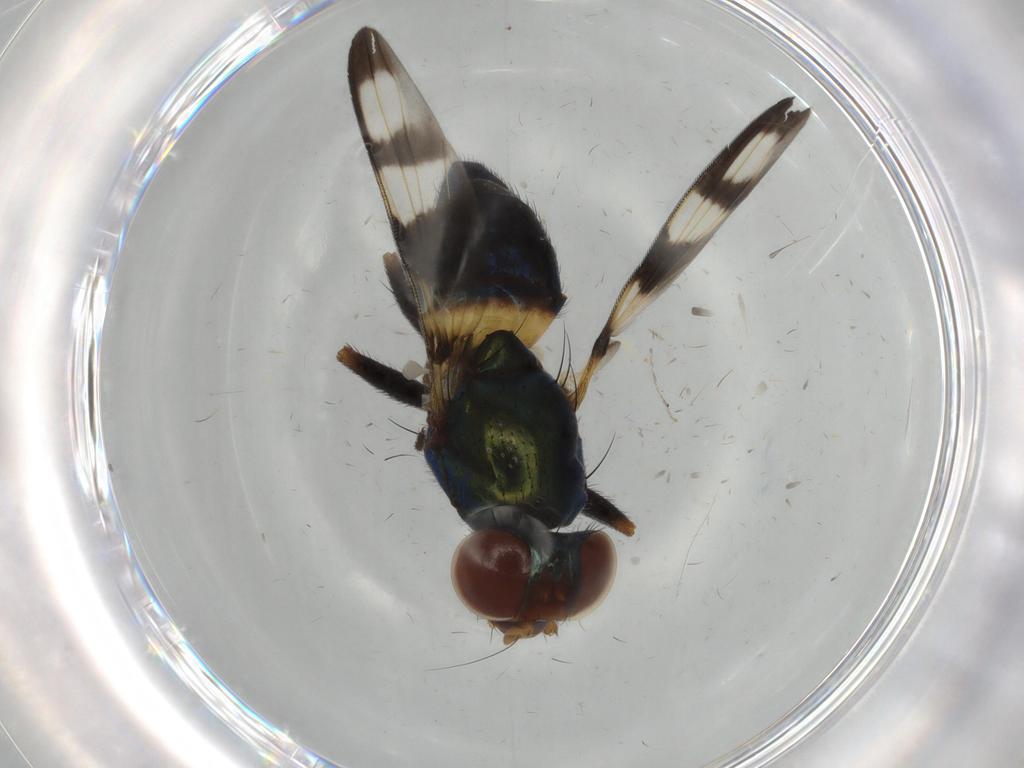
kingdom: Animalia
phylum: Arthropoda
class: Insecta
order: Diptera
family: Ulidiidae
